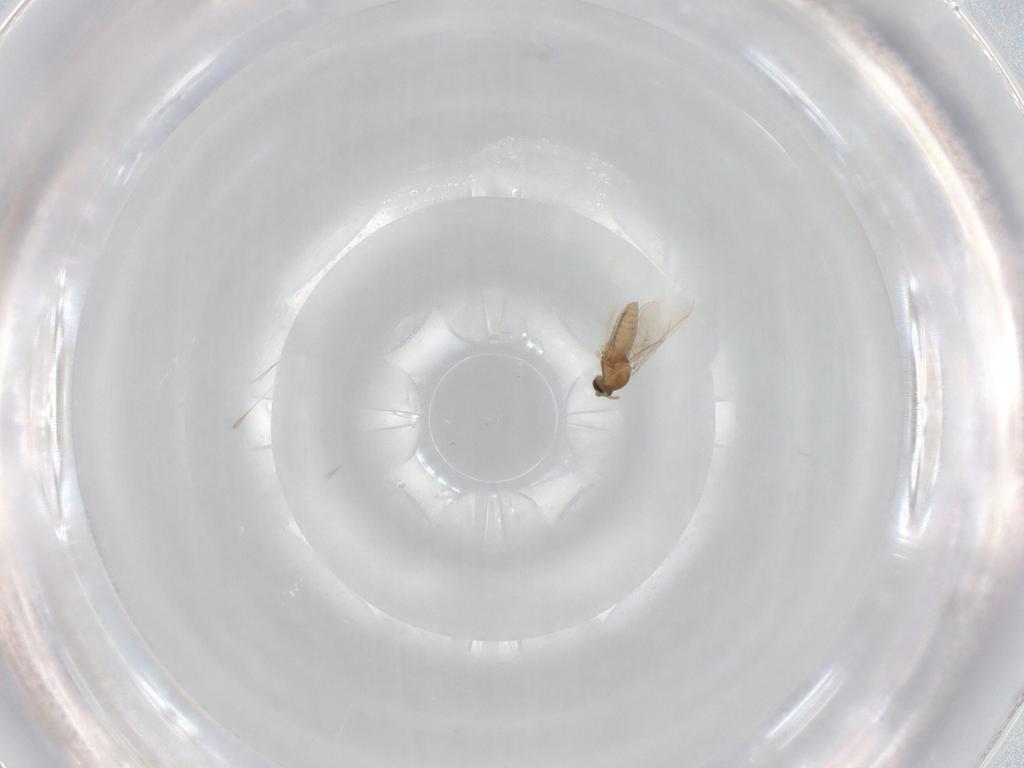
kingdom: Animalia
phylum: Arthropoda
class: Insecta
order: Diptera
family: Cecidomyiidae
